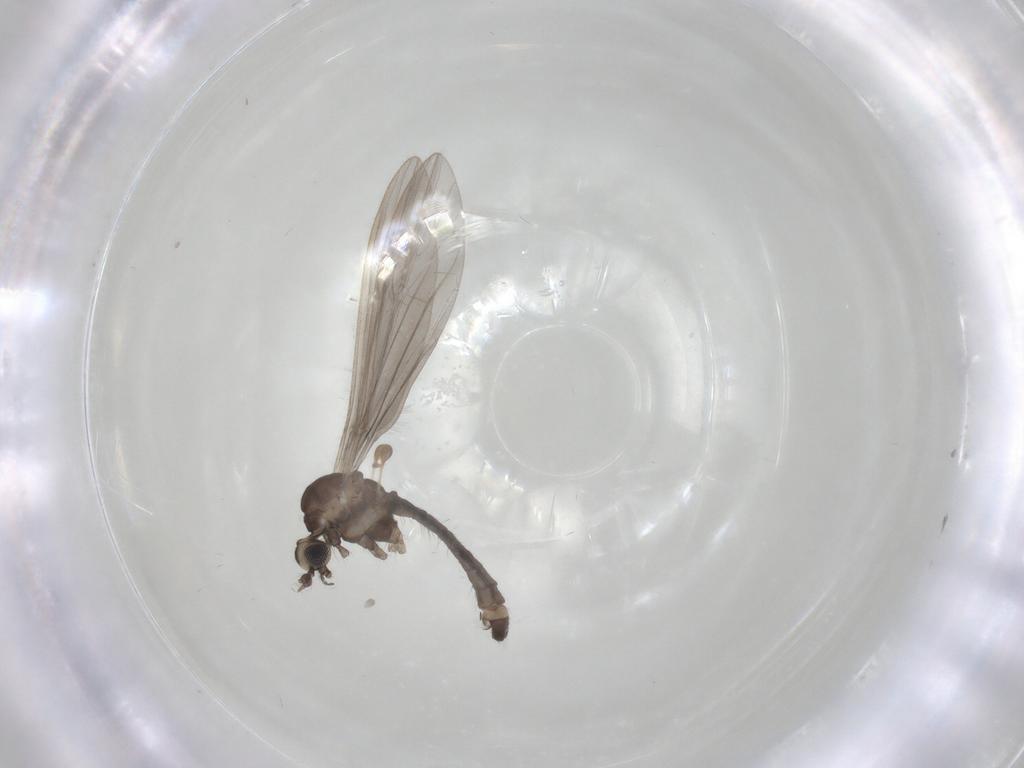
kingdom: Animalia
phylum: Arthropoda
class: Insecta
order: Diptera
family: Limoniidae
